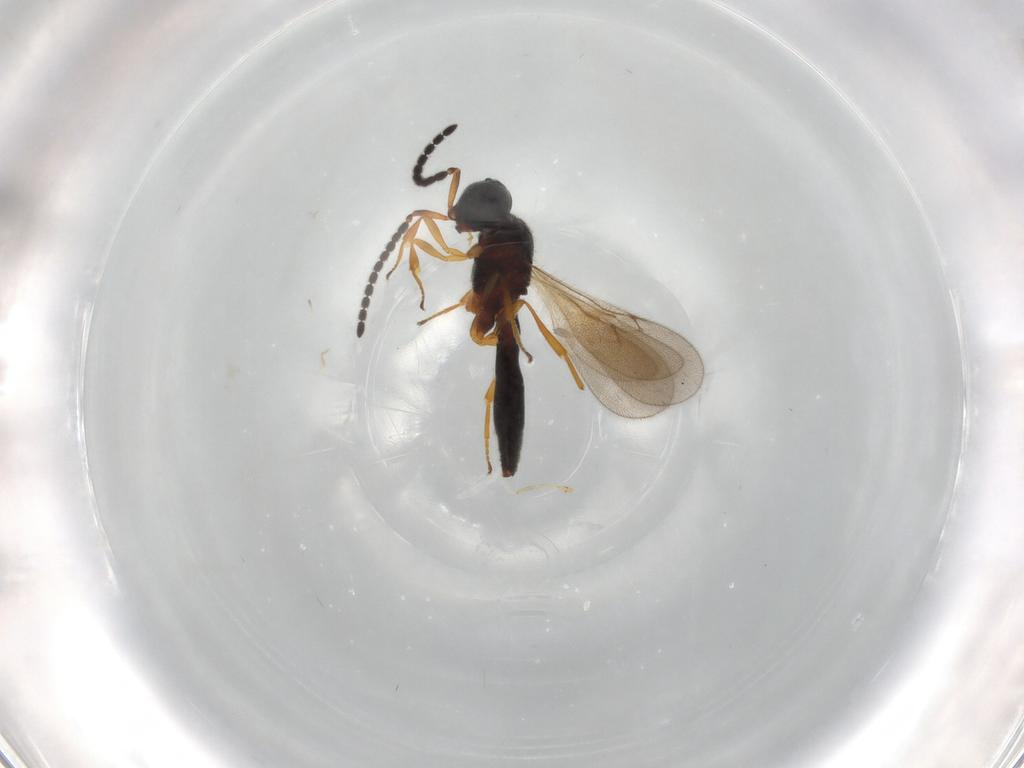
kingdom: Animalia
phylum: Arthropoda
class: Insecta
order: Hymenoptera
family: Scelionidae
